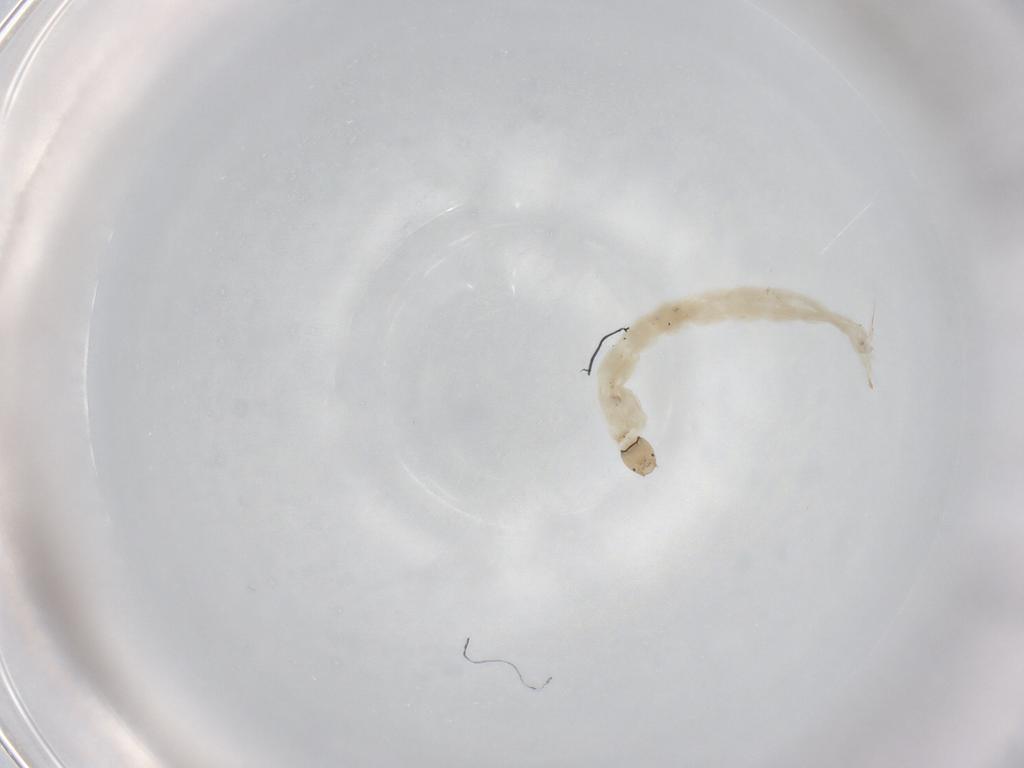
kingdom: Animalia
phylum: Arthropoda
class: Insecta
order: Diptera
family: Chironomidae
